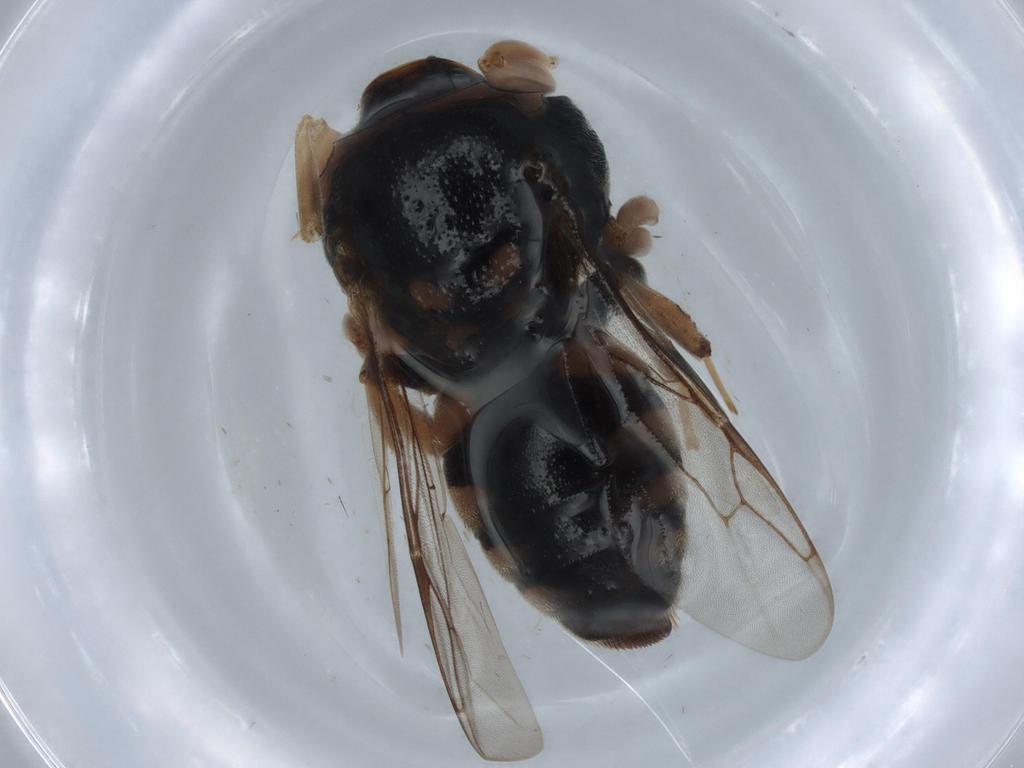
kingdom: Animalia
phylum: Arthropoda
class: Insecta
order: Hymenoptera
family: Crabronidae
